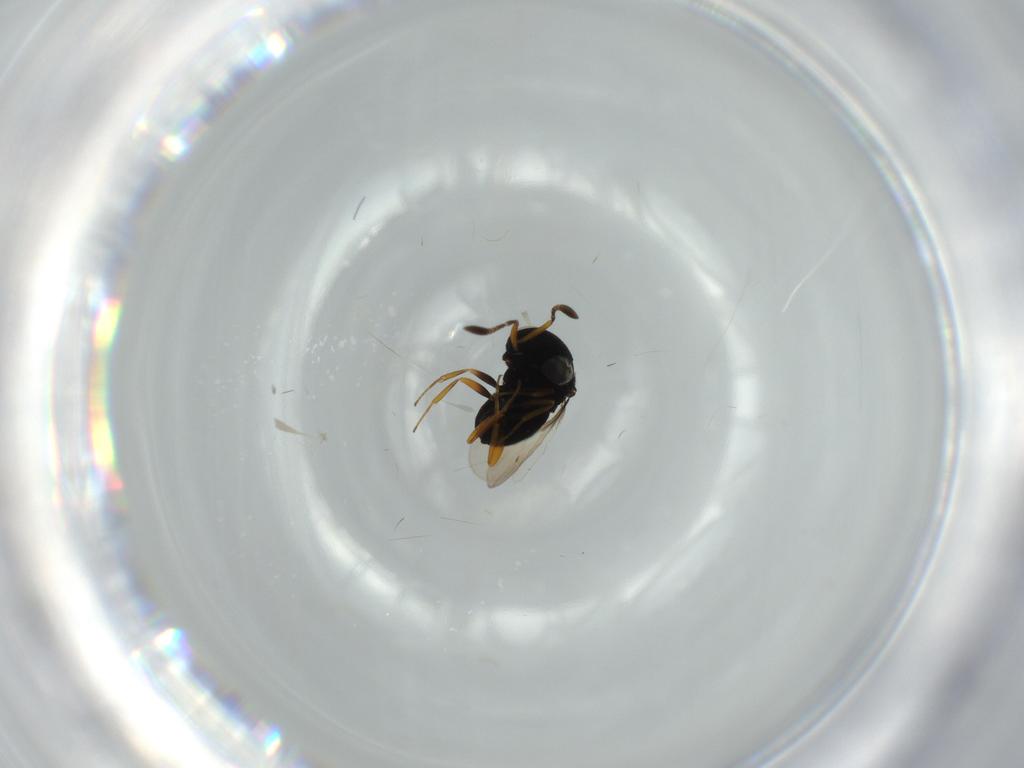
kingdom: Animalia
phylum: Arthropoda
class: Insecta
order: Hymenoptera
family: Scelionidae
